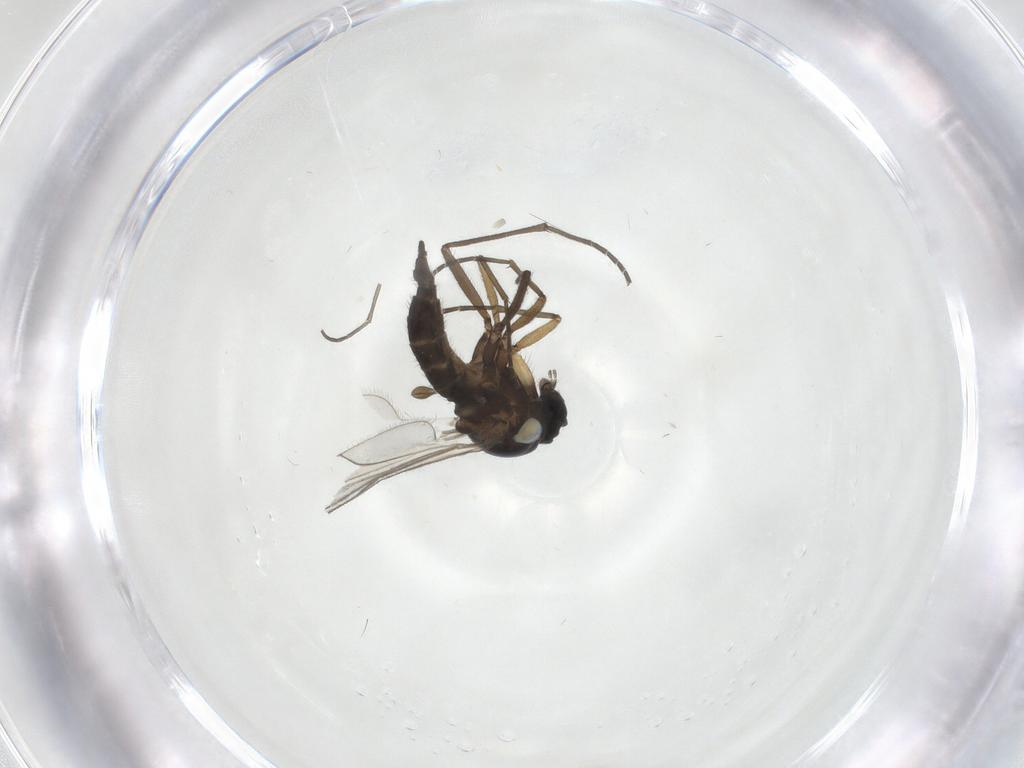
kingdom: Animalia
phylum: Arthropoda
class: Insecta
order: Diptera
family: Sciaridae
